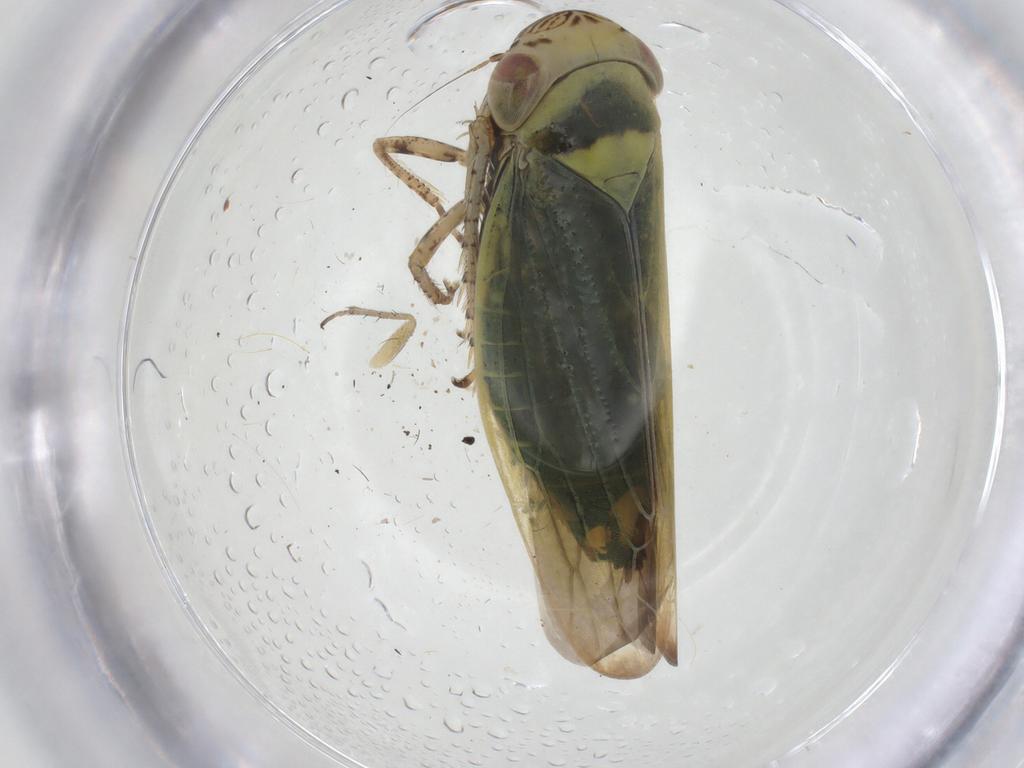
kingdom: Animalia
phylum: Arthropoda
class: Insecta
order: Hemiptera
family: Cicadellidae
